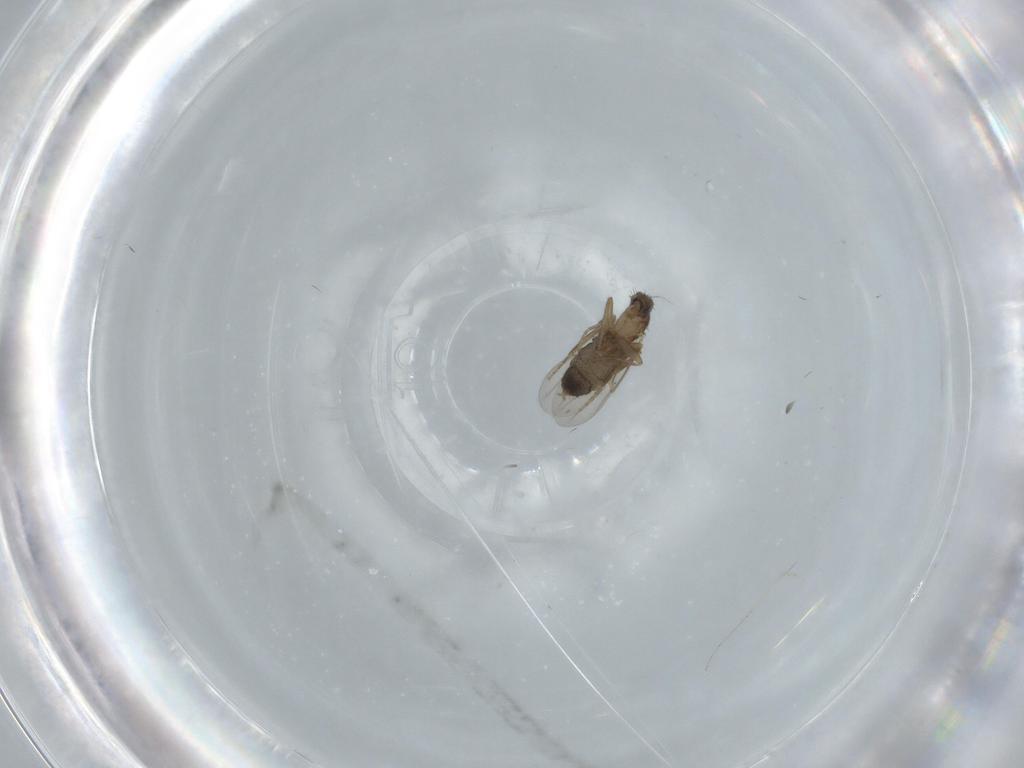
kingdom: Animalia
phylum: Arthropoda
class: Insecta
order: Diptera
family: Cecidomyiidae
